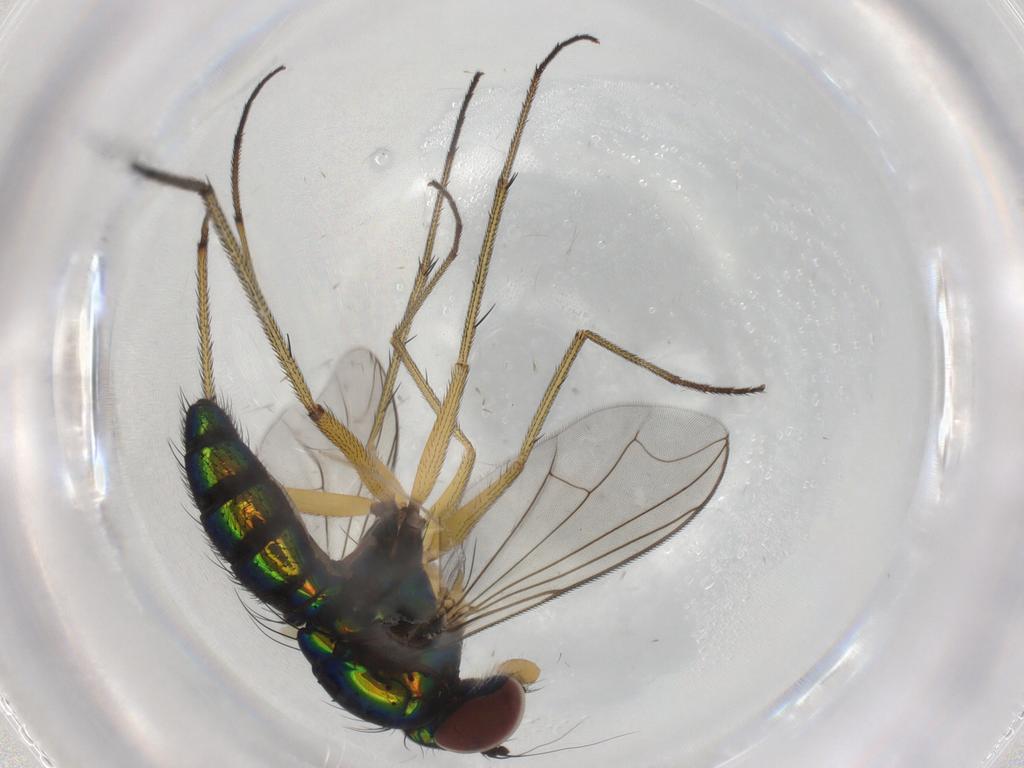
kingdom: Animalia
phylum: Arthropoda
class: Insecta
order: Diptera
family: Dolichopodidae
